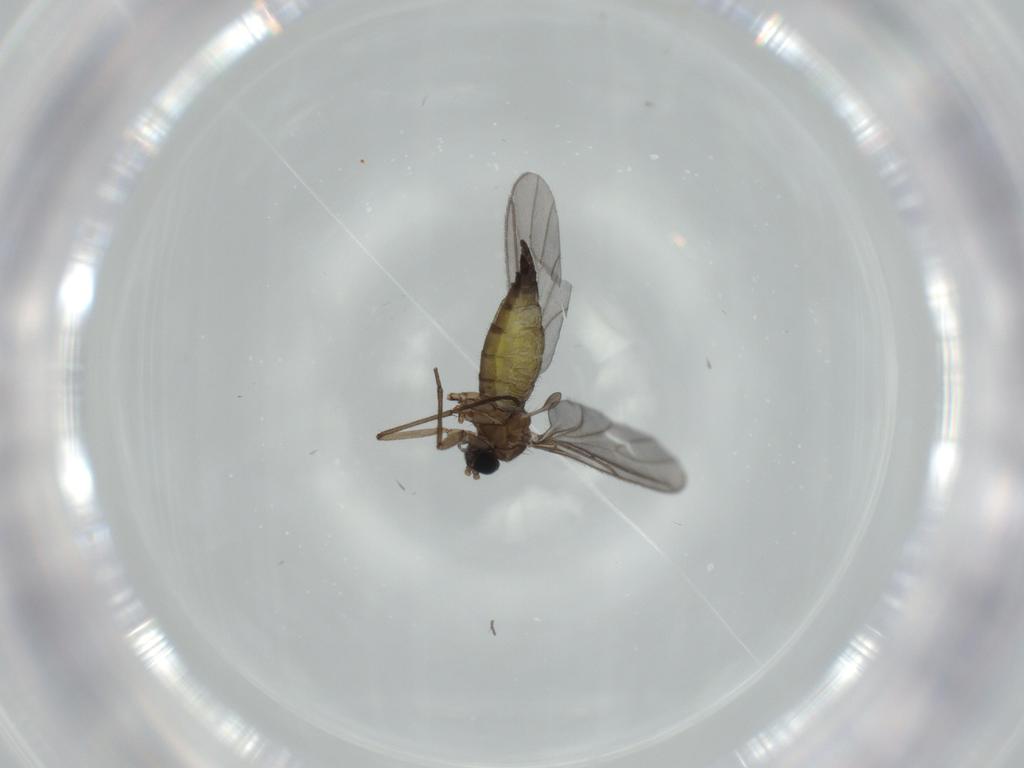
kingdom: Animalia
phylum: Arthropoda
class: Insecta
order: Diptera
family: Sciaridae
